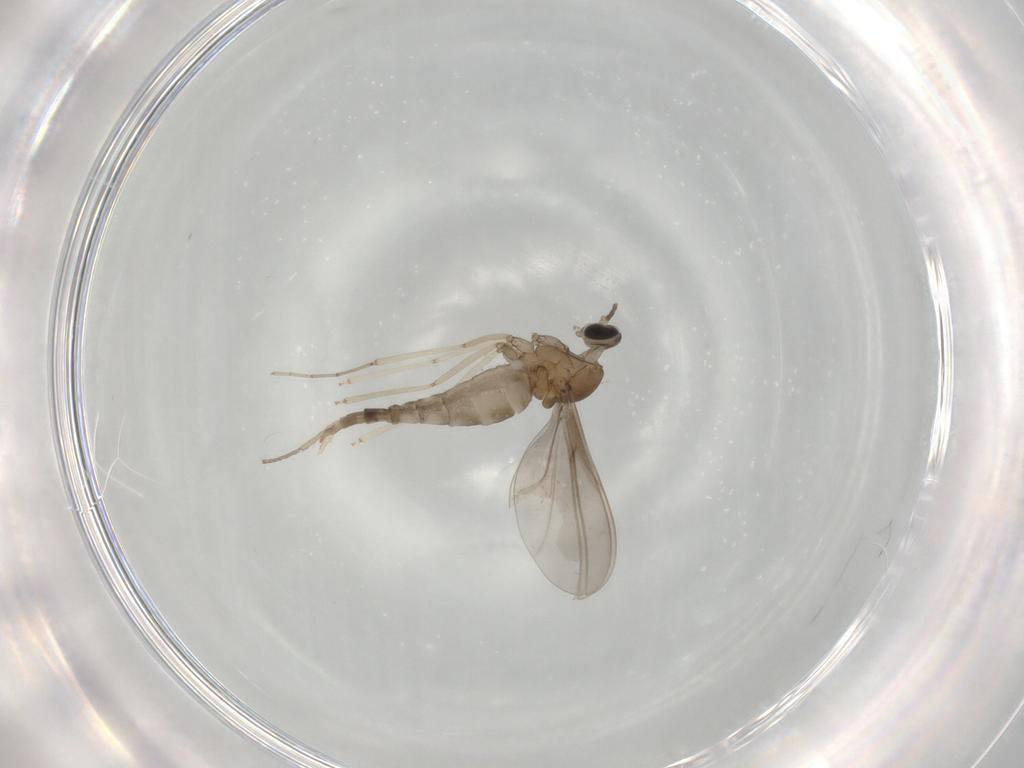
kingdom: Animalia
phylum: Arthropoda
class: Insecta
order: Diptera
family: Cecidomyiidae
